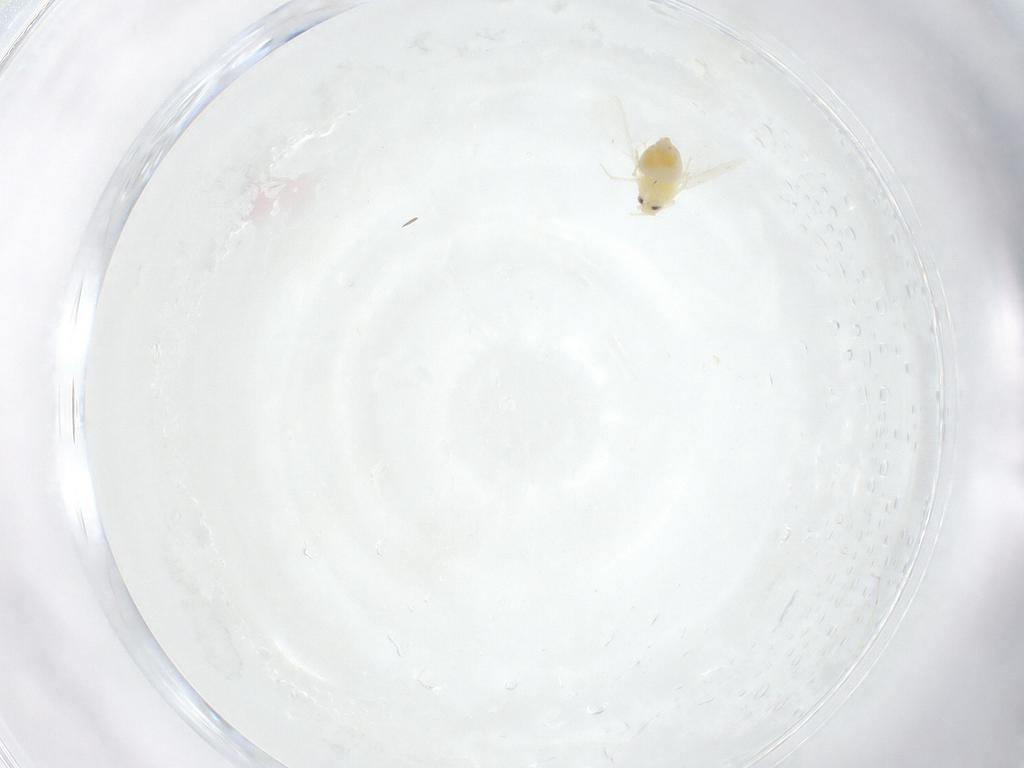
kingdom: Animalia
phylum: Arthropoda
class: Insecta
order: Hemiptera
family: Aleyrodidae
